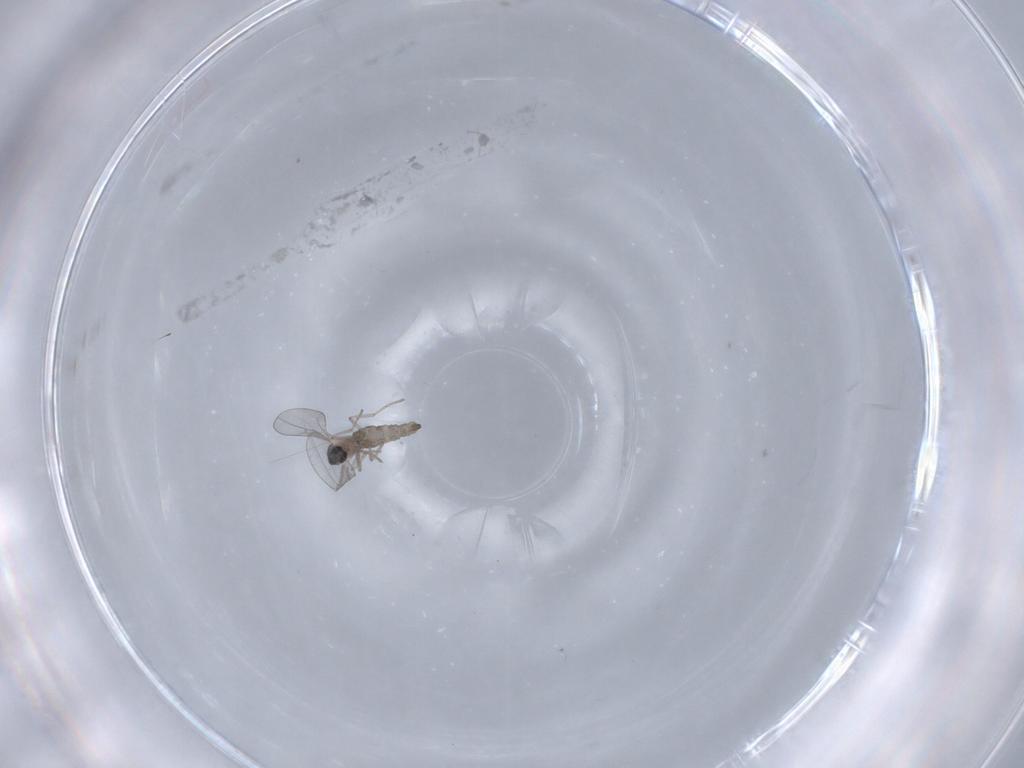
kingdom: Animalia
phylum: Arthropoda
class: Insecta
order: Diptera
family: Cecidomyiidae
